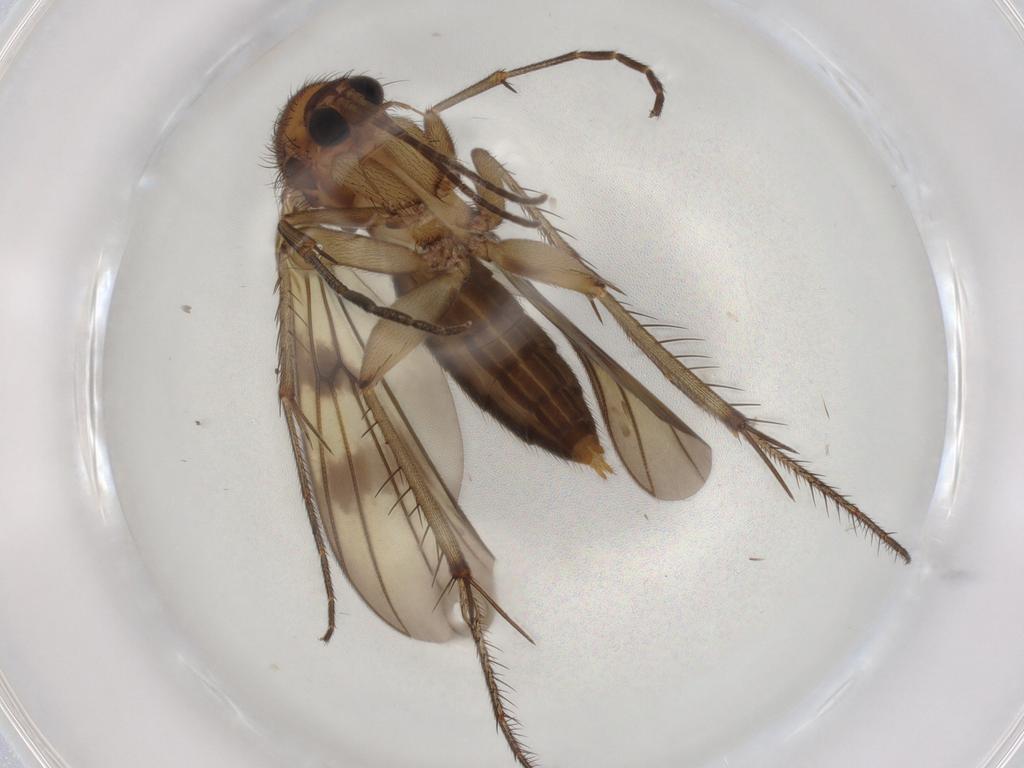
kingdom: Animalia
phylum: Arthropoda
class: Insecta
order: Diptera
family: Mycetophilidae
